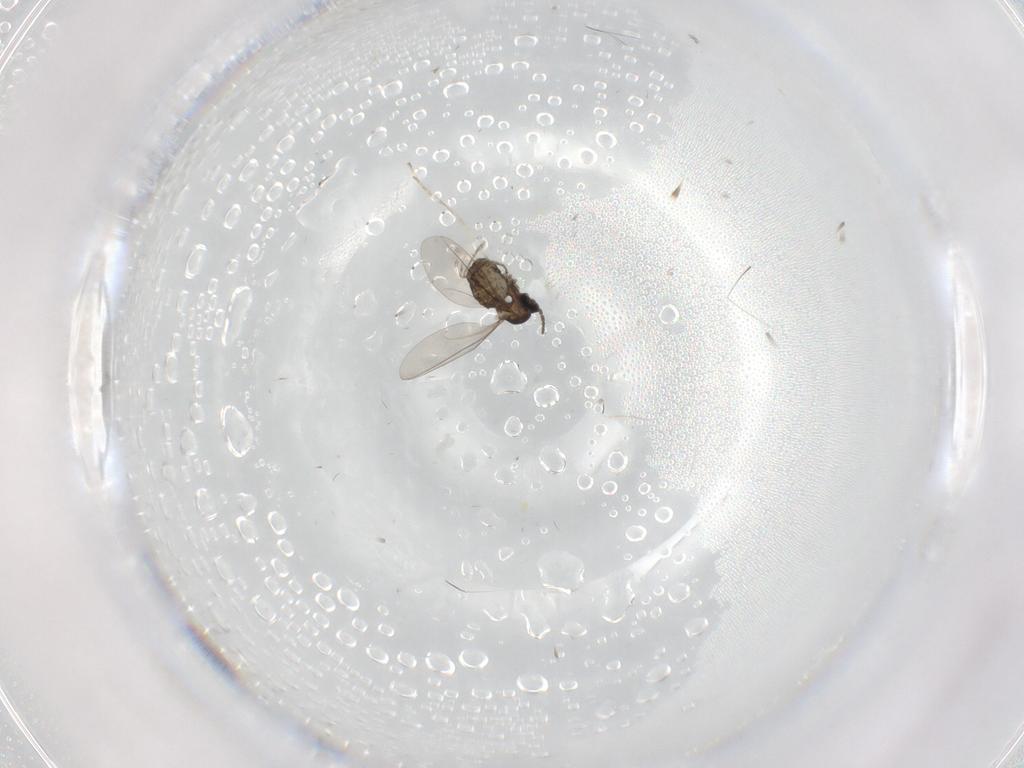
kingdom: Animalia
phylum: Arthropoda
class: Insecta
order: Diptera
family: Cecidomyiidae
